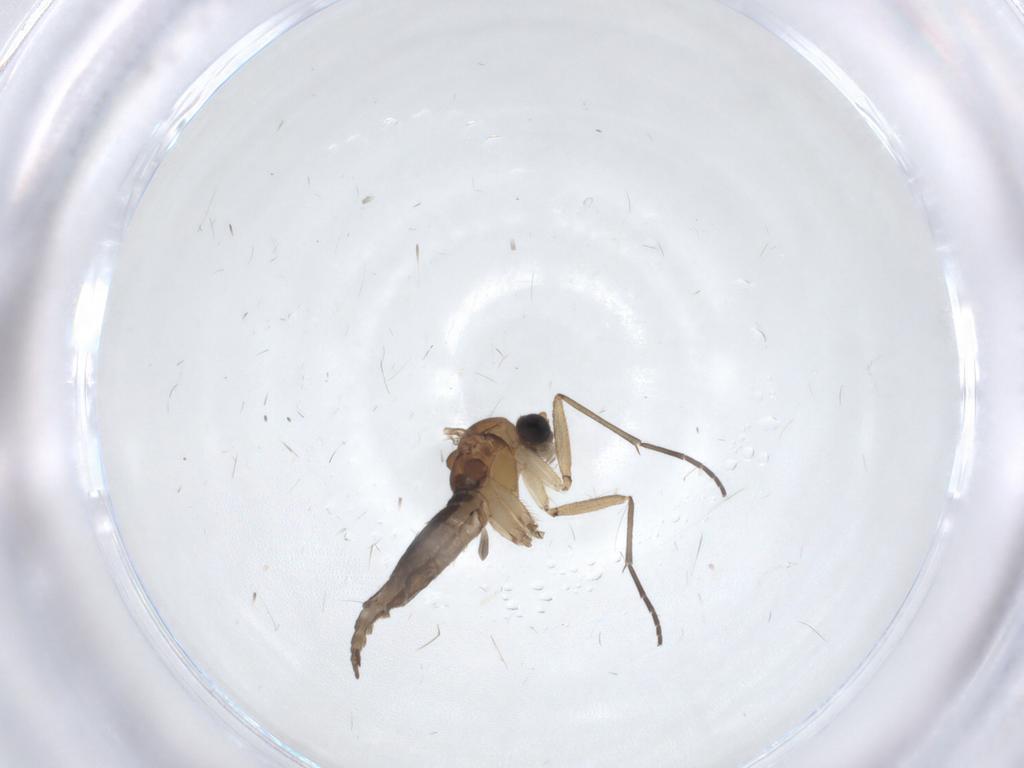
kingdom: Animalia
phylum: Arthropoda
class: Insecta
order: Diptera
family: Sciaridae
